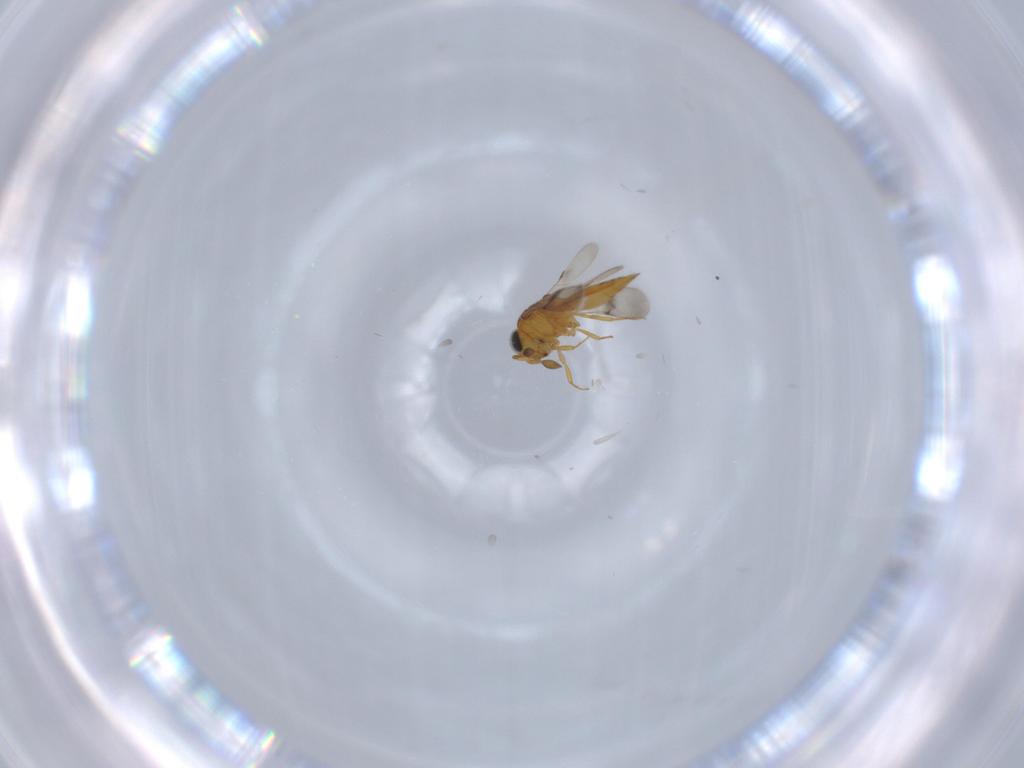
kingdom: Animalia
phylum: Arthropoda
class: Insecta
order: Hymenoptera
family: Scelionidae
